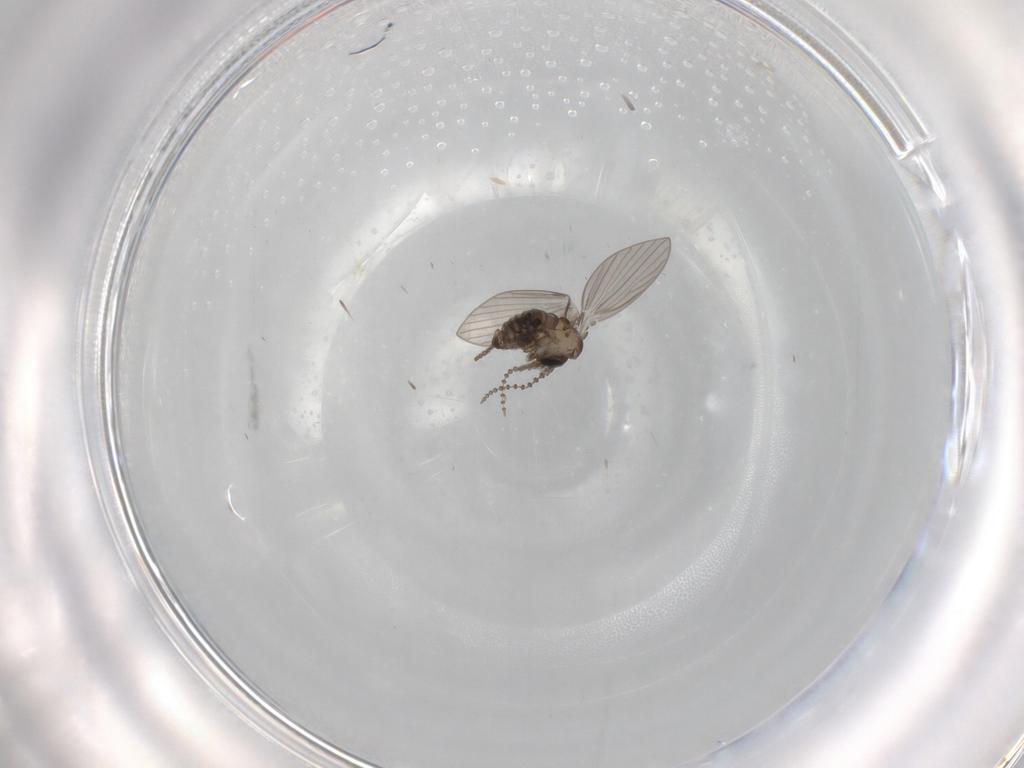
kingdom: Animalia
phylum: Arthropoda
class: Insecta
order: Diptera
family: Psychodidae
